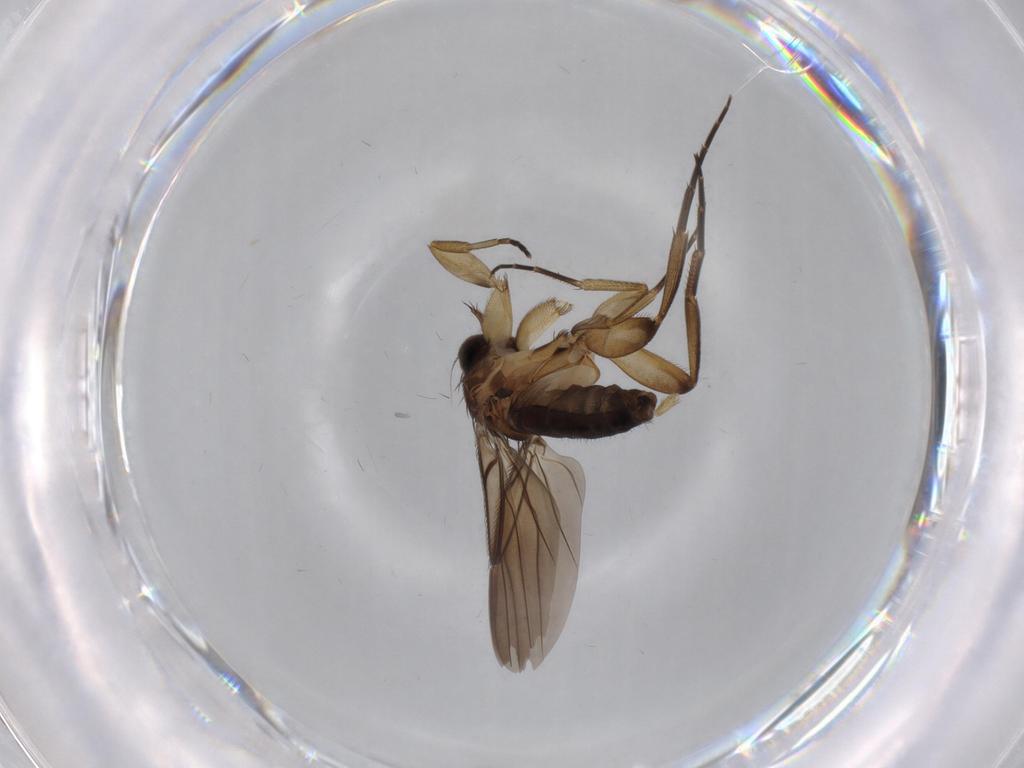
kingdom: Animalia
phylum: Arthropoda
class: Insecta
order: Diptera
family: Phoridae
